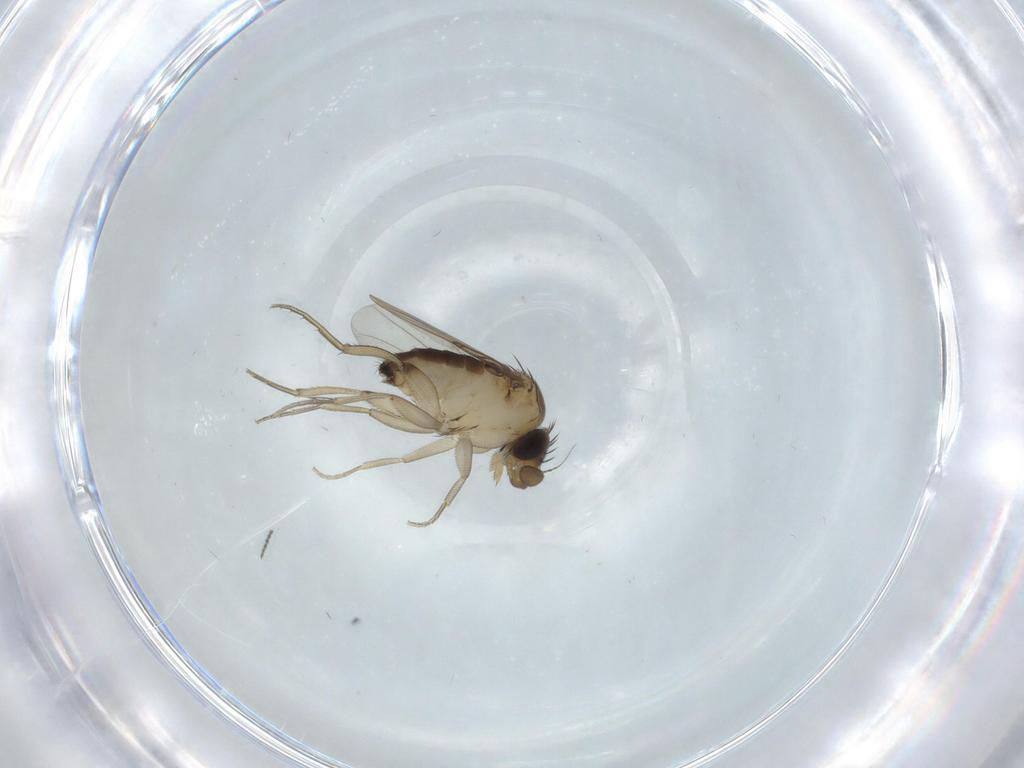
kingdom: Animalia
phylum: Arthropoda
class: Insecta
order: Diptera
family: Phoridae
